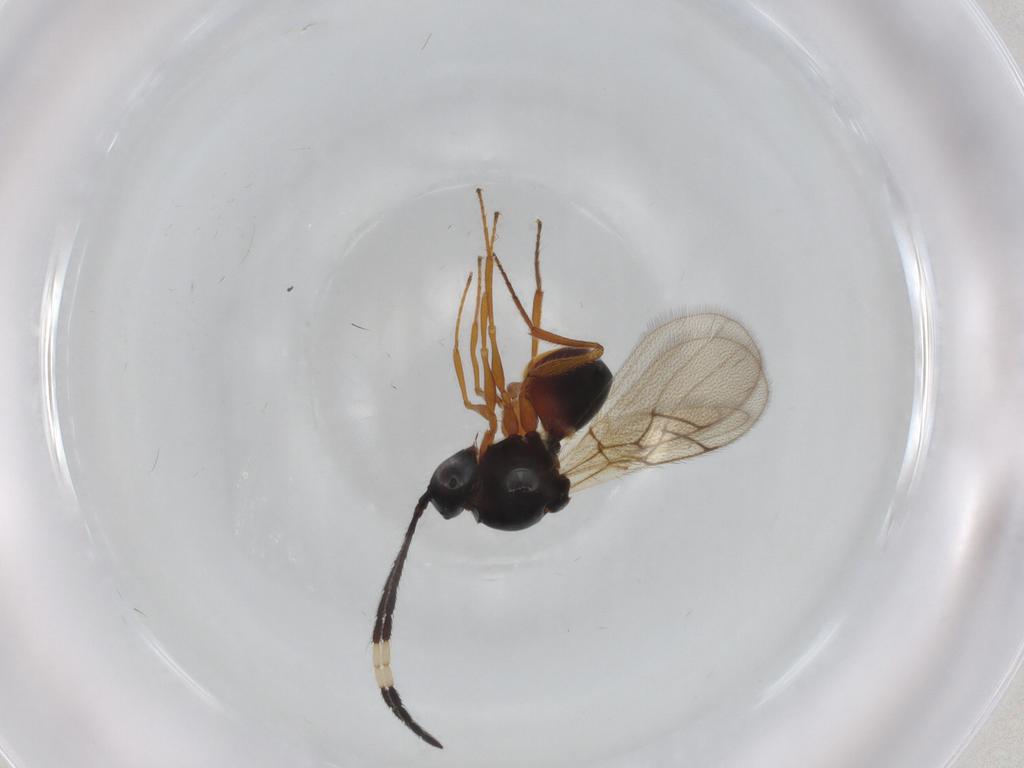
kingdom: Animalia
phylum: Arthropoda
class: Insecta
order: Hymenoptera
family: Figitidae
